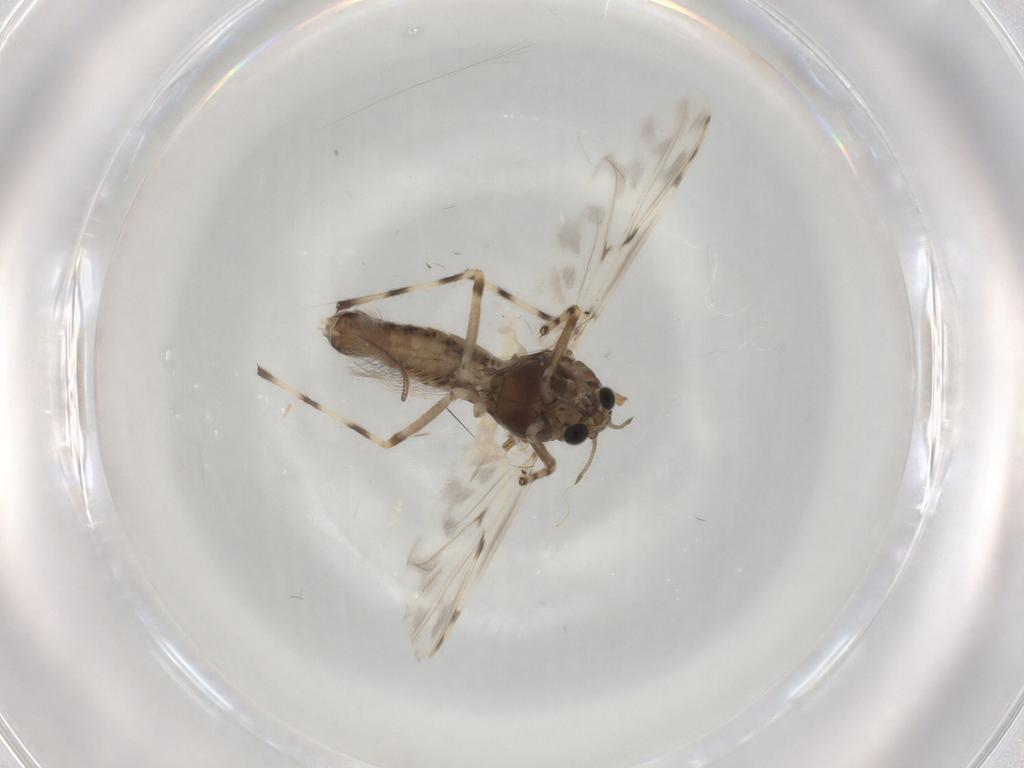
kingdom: Animalia
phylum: Arthropoda
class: Insecta
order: Diptera
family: Chironomidae
